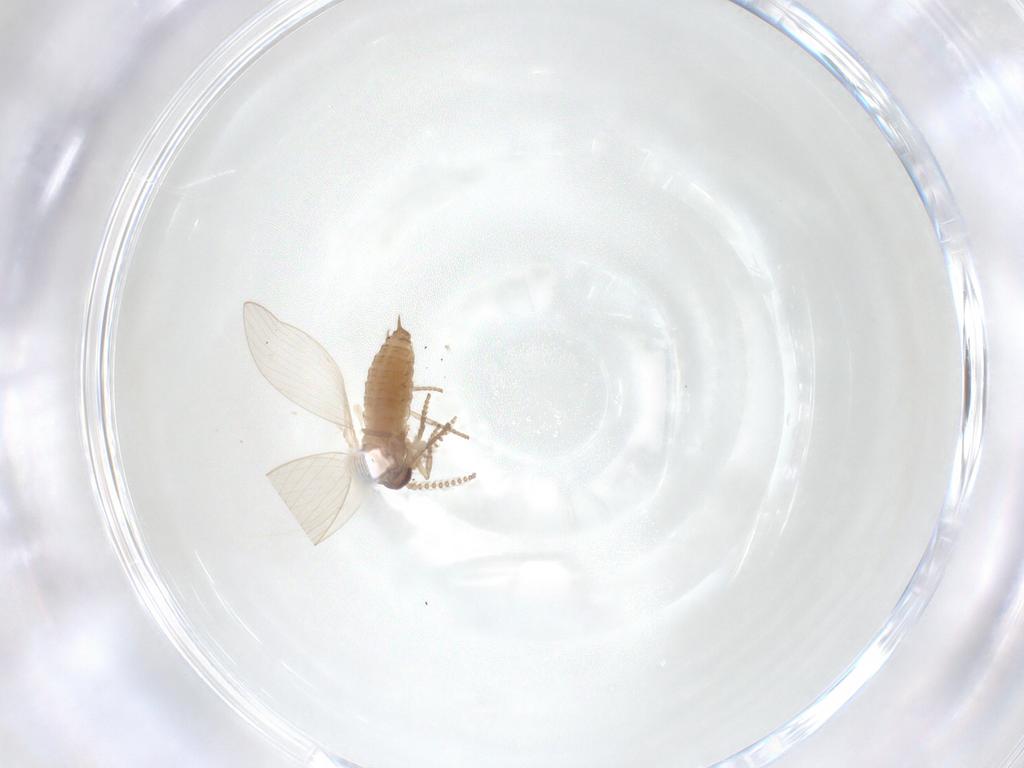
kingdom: Animalia
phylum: Arthropoda
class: Insecta
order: Diptera
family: Psychodidae
